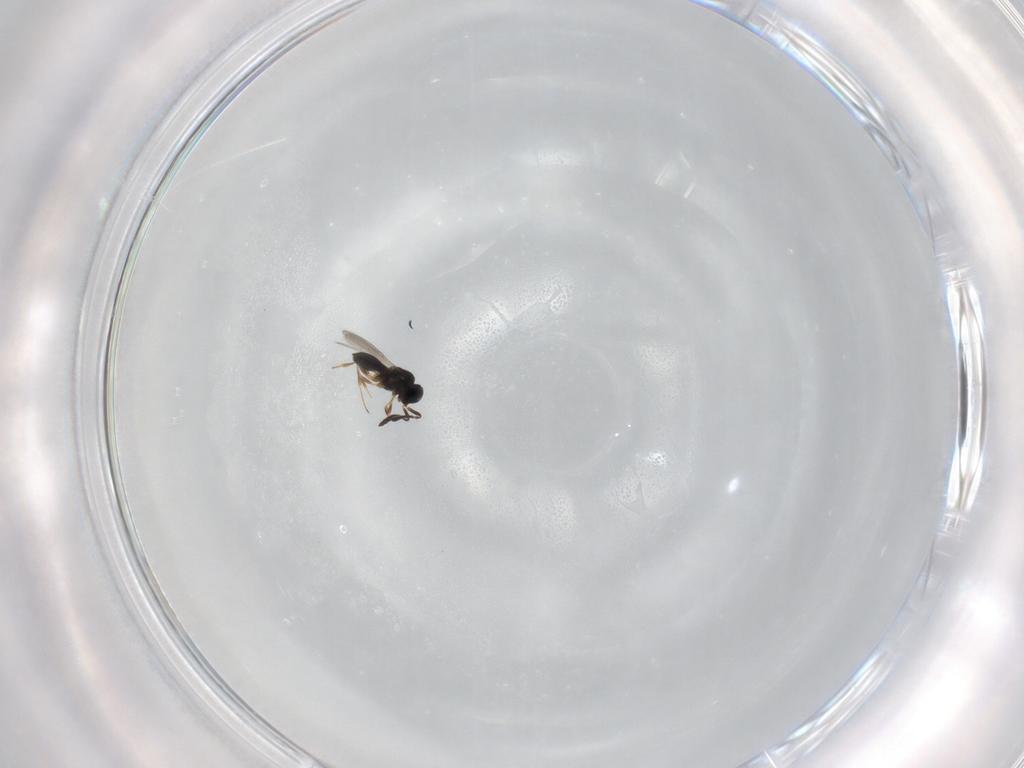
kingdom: Animalia
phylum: Arthropoda
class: Insecta
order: Hymenoptera
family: Scelionidae
